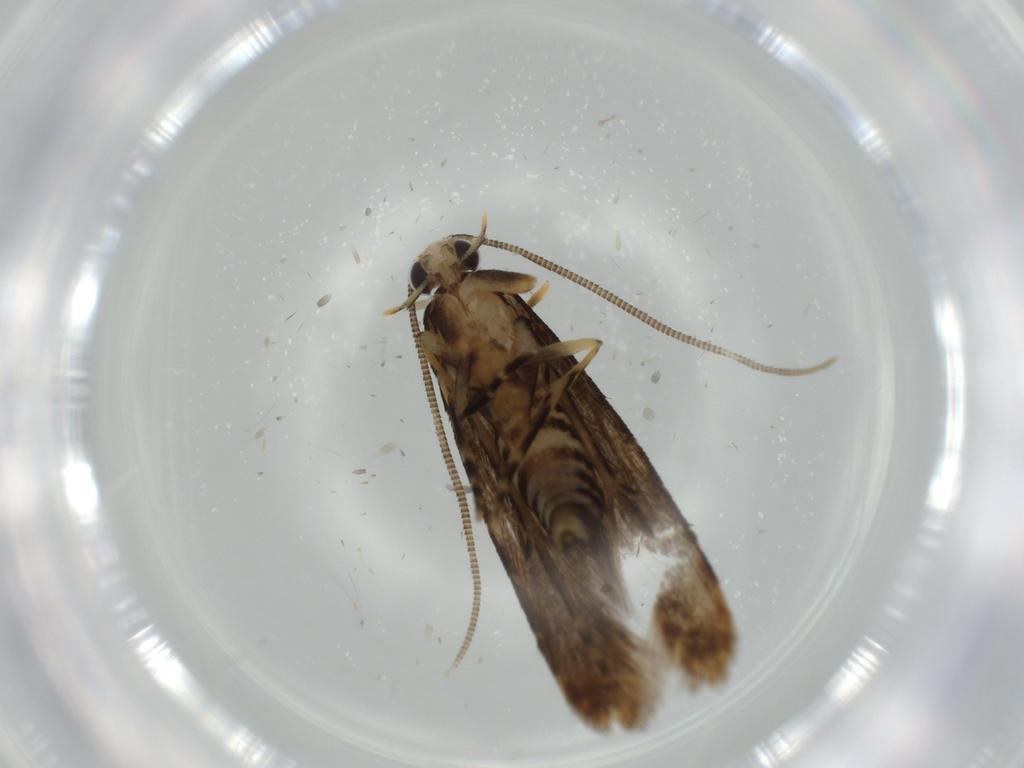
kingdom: Animalia
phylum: Arthropoda
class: Insecta
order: Lepidoptera
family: Tineidae
